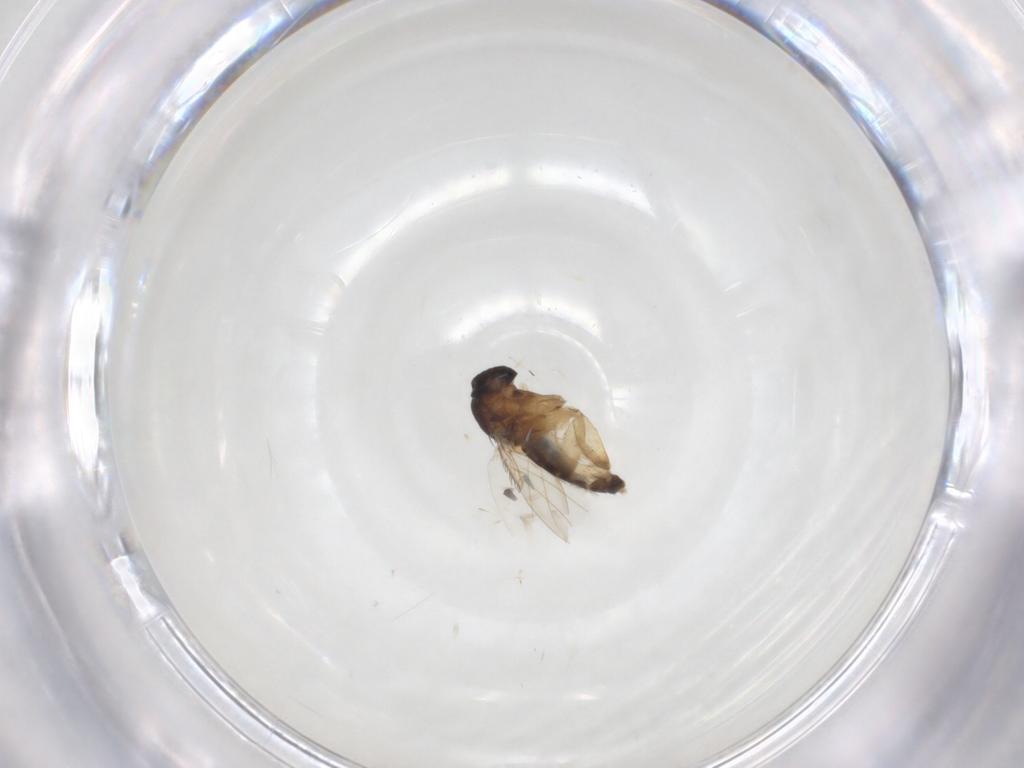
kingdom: Animalia
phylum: Arthropoda
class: Insecta
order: Diptera
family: Chironomidae
